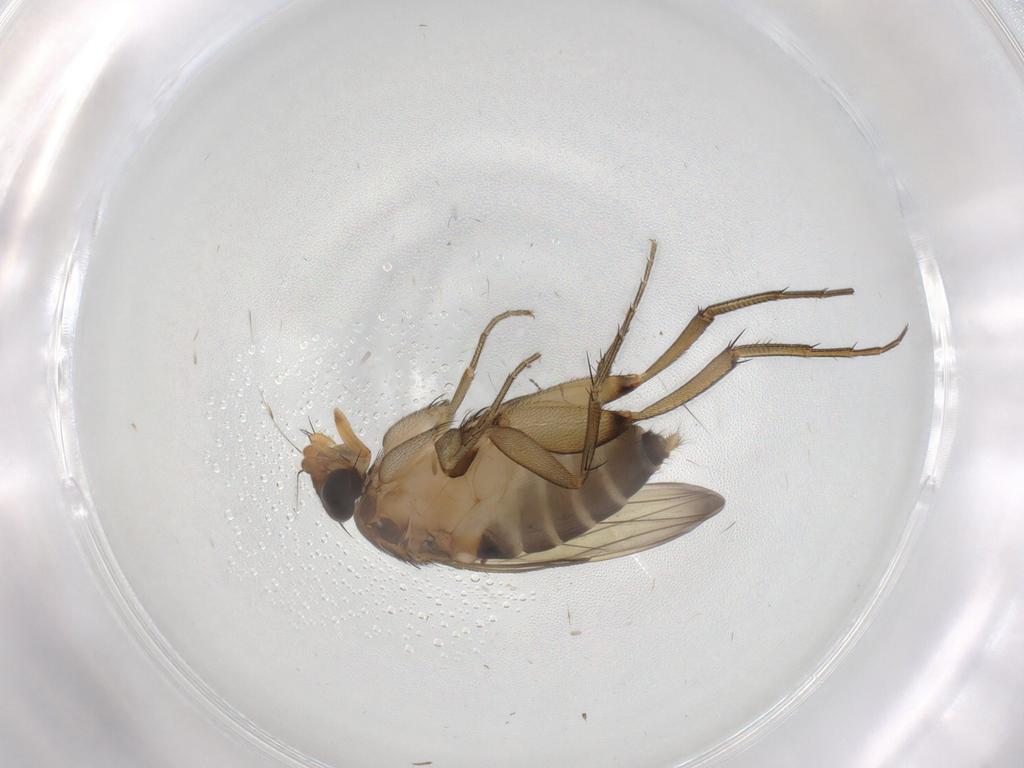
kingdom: Animalia
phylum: Arthropoda
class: Insecta
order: Diptera
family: Phoridae
